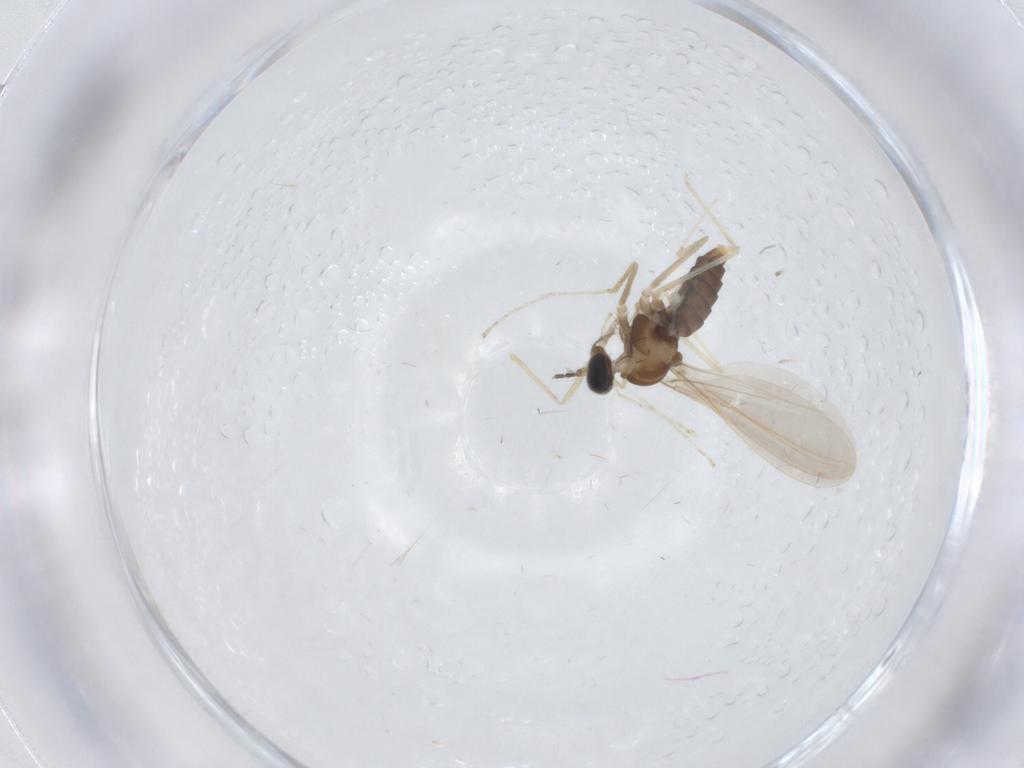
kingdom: Animalia
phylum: Arthropoda
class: Insecta
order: Diptera
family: Cecidomyiidae
